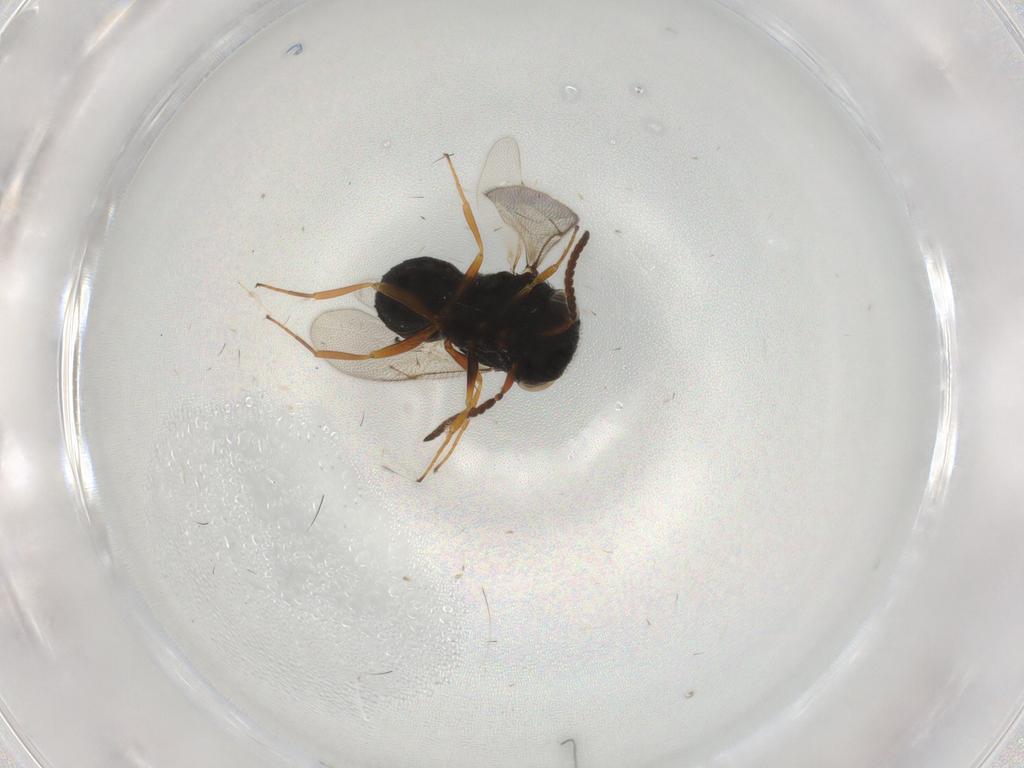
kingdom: Animalia
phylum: Arthropoda
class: Insecta
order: Hymenoptera
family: Scelionidae
